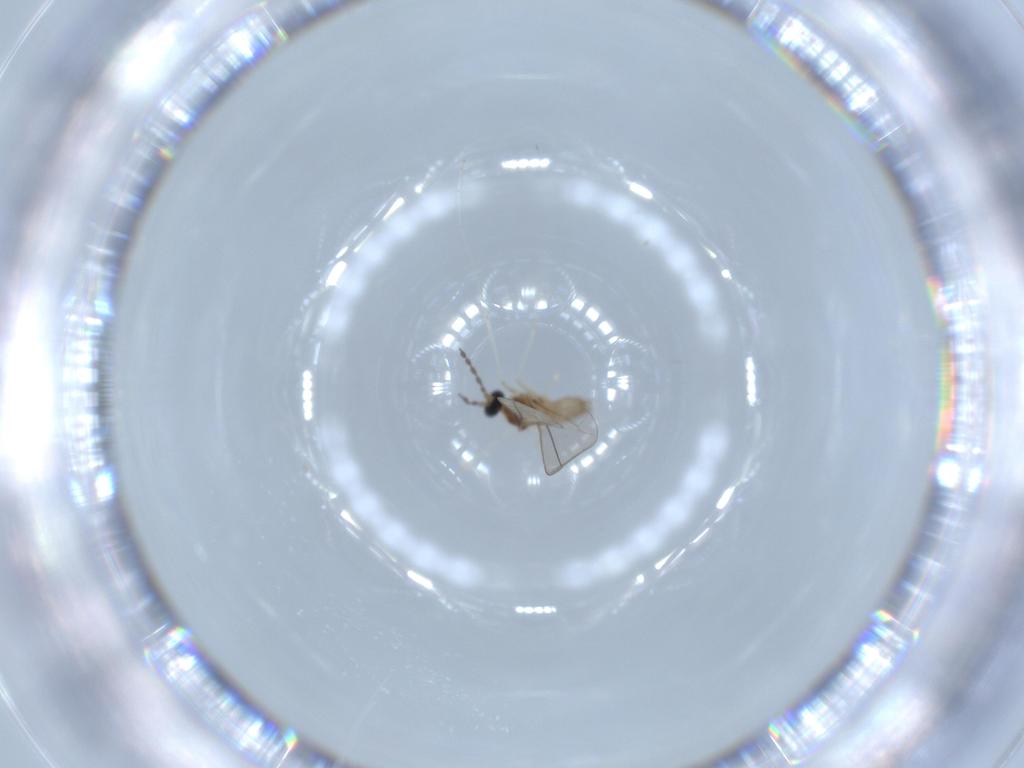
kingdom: Animalia
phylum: Arthropoda
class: Insecta
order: Diptera
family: Cecidomyiidae
